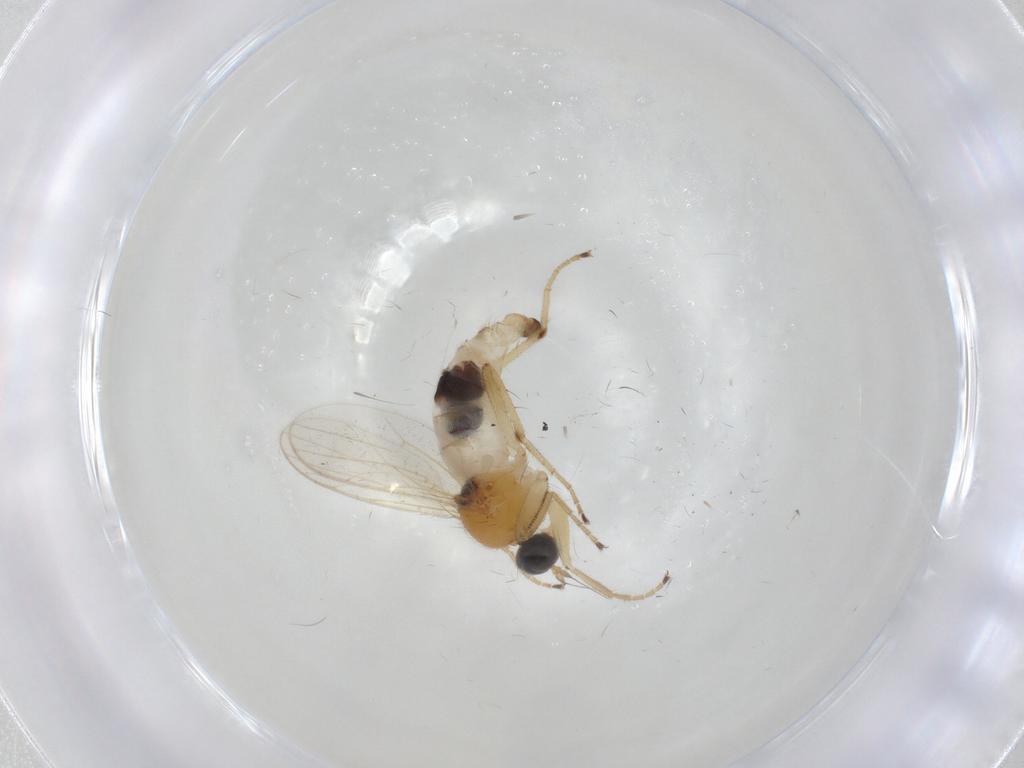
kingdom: Animalia
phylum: Arthropoda
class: Insecta
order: Diptera
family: Hybotidae
